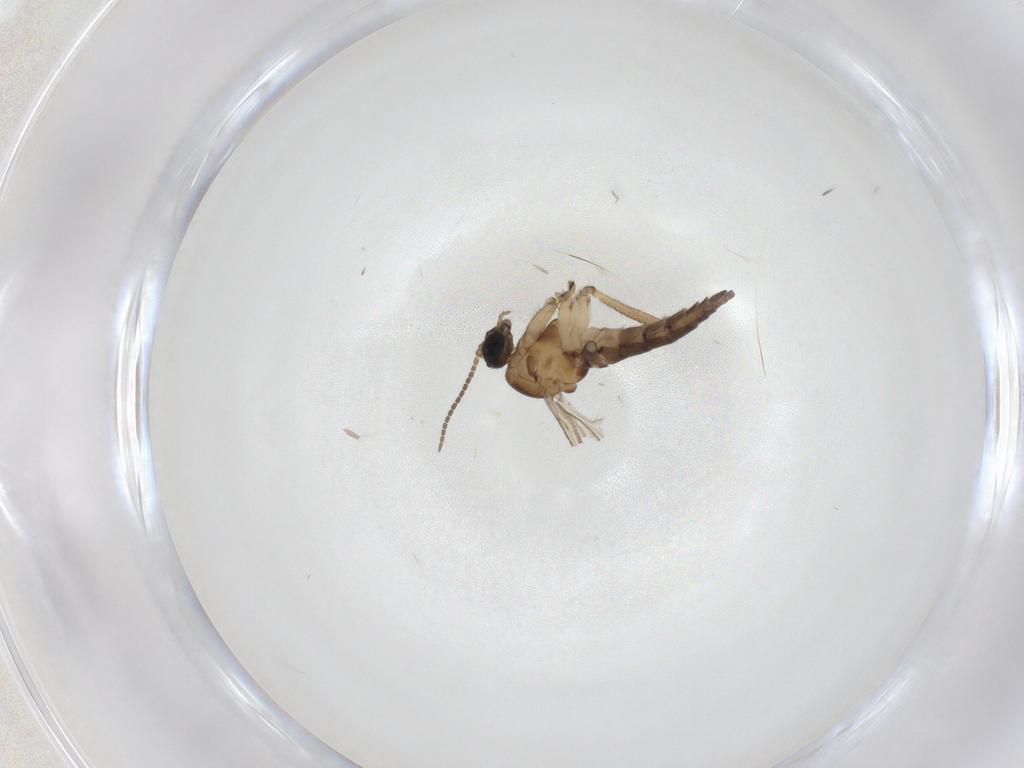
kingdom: Animalia
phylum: Arthropoda
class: Insecta
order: Diptera
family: Sciaridae
